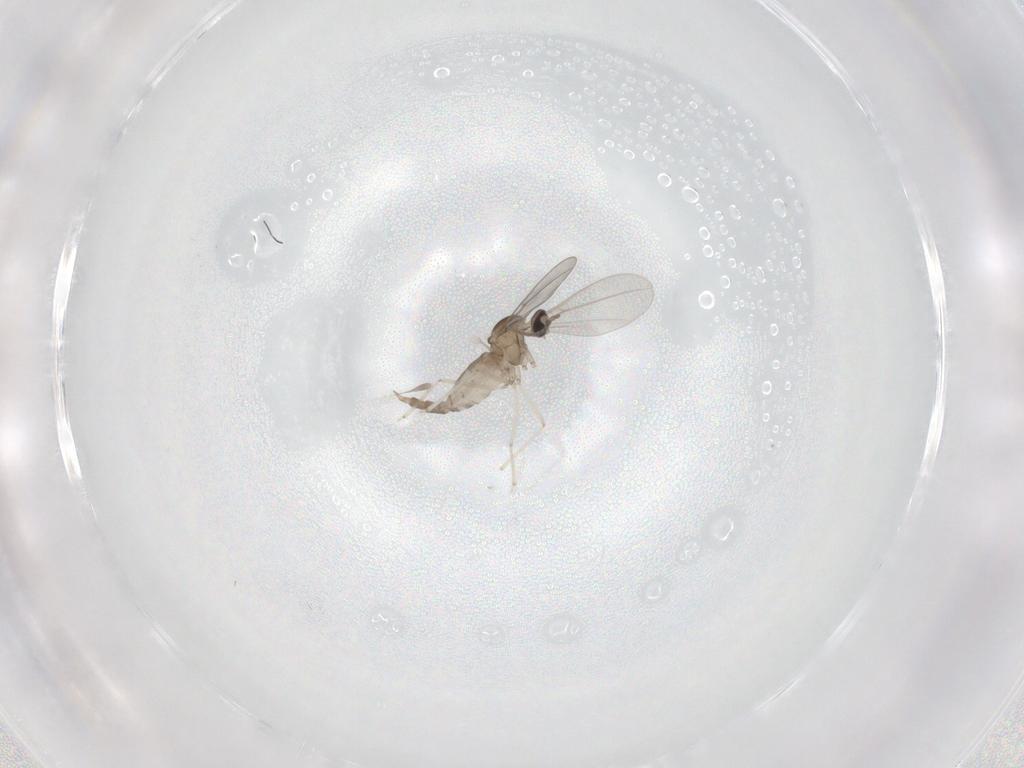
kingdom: Animalia
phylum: Arthropoda
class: Insecta
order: Diptera
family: Cecidomyiidae
